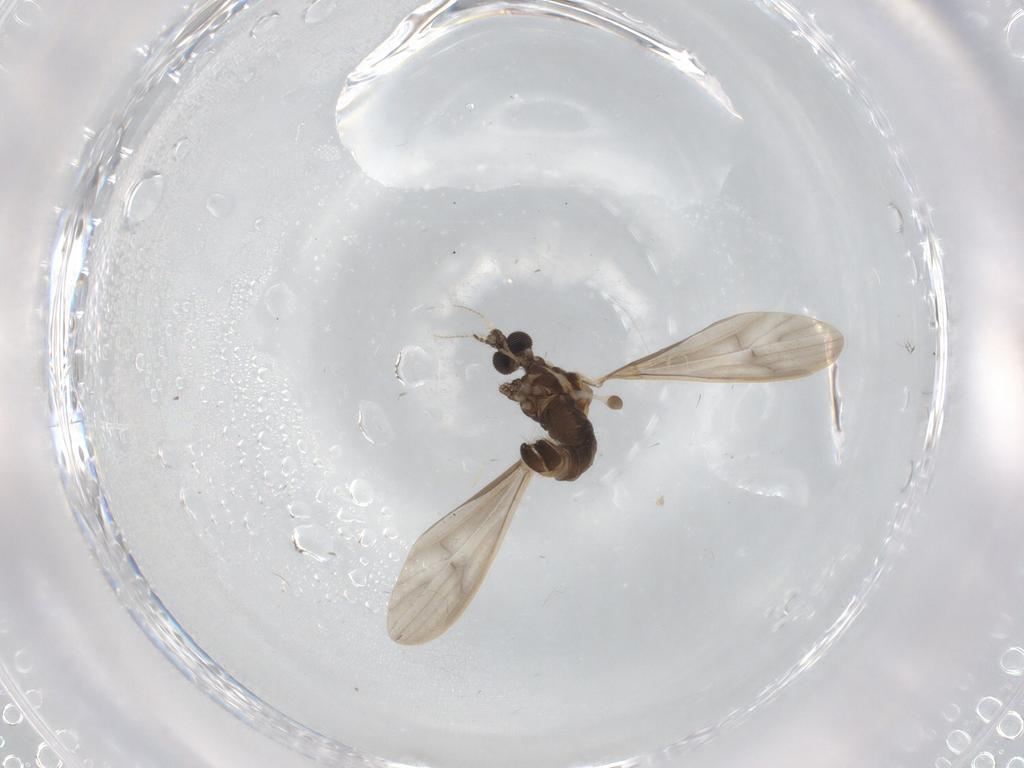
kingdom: Animalia
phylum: Arthropoda
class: Insecta
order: Diptera
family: Limoniidae
